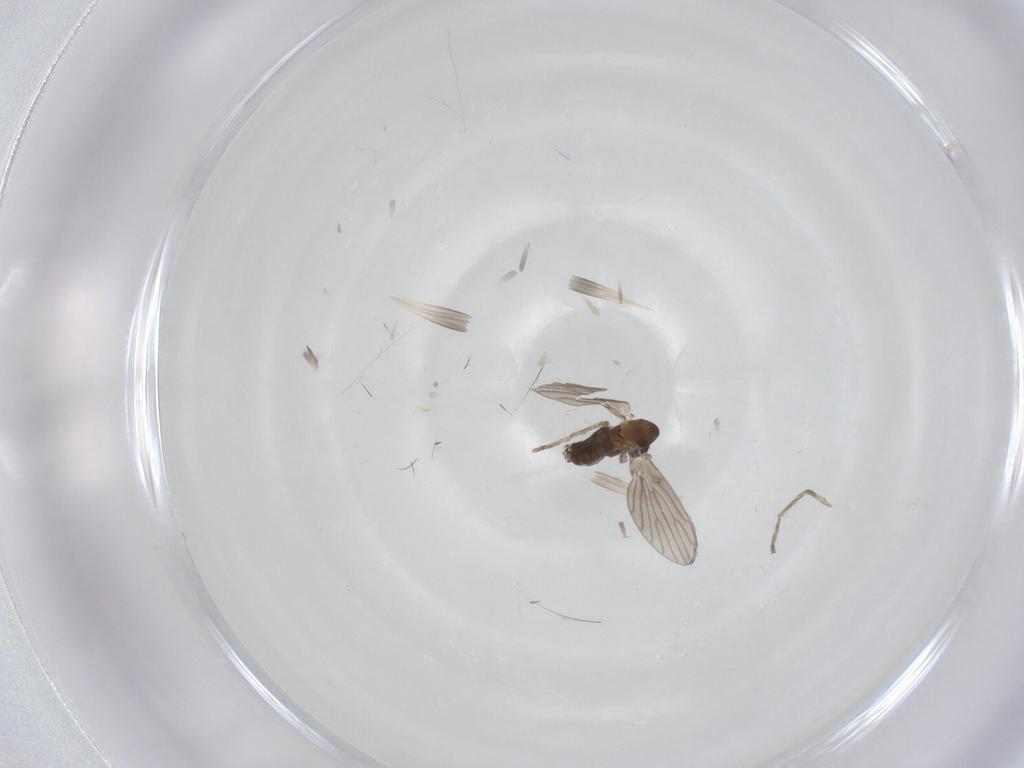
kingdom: Animalia
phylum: Arthropoda
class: Insecta
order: Diptera
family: Psychodidae
